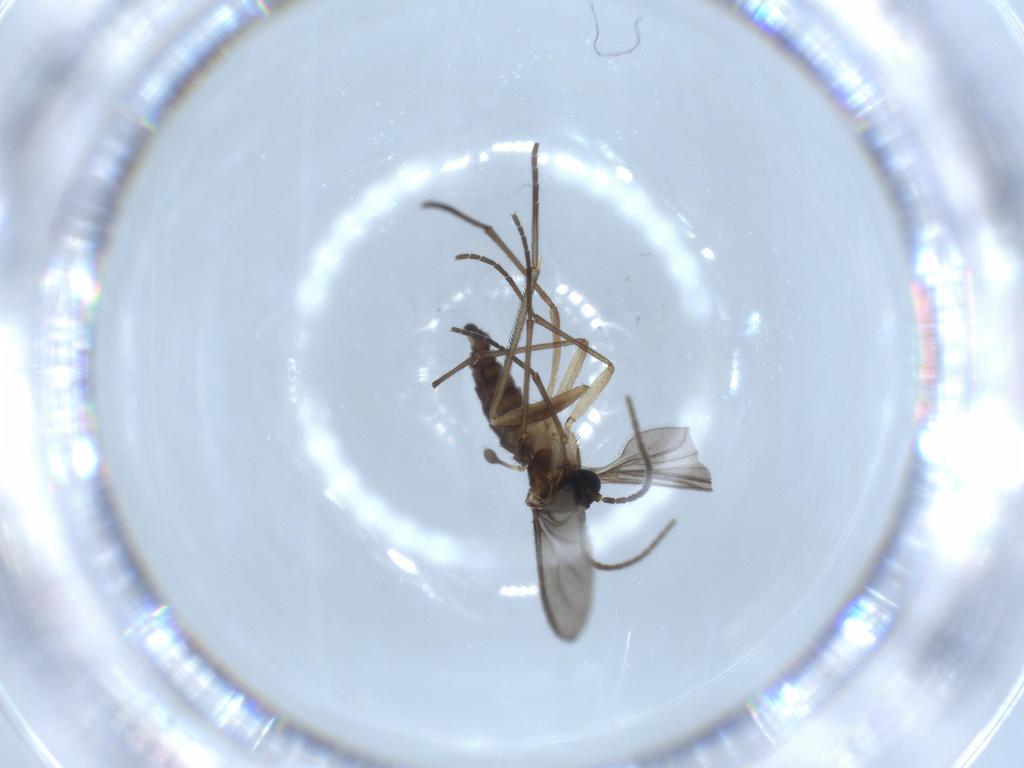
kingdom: Animalia
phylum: Arthropoda
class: Insecta
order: Diptera
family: Sciaridae
